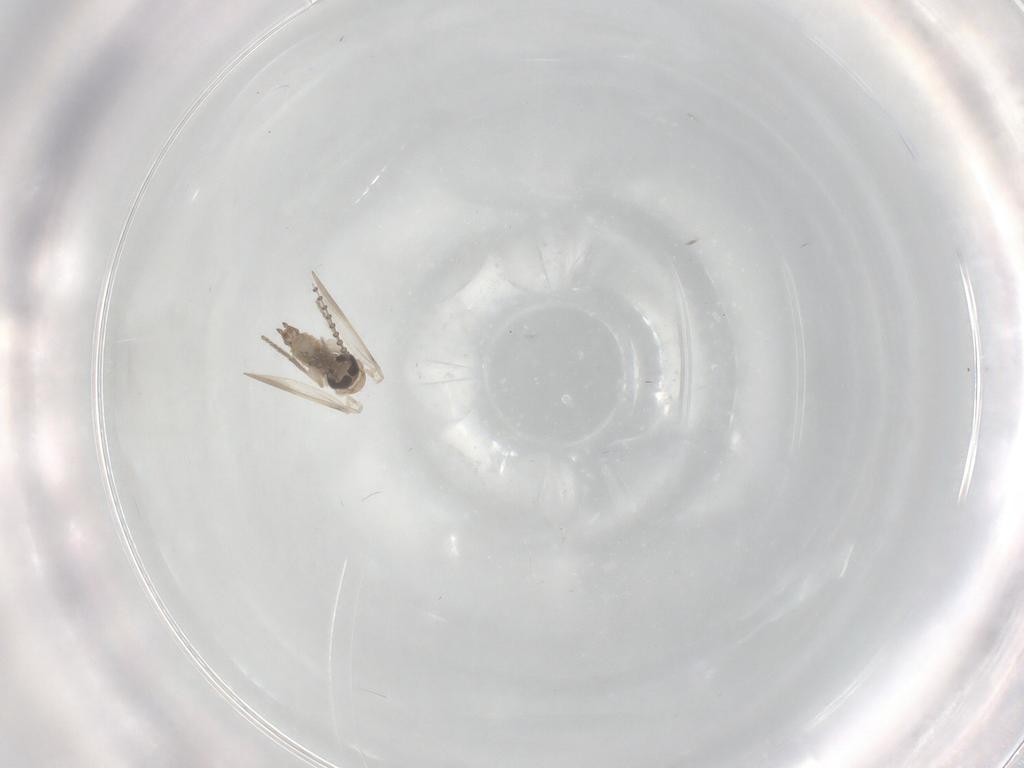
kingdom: Animalia
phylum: Arthropoda
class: Insecta
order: Diptera
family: Psychodidae
